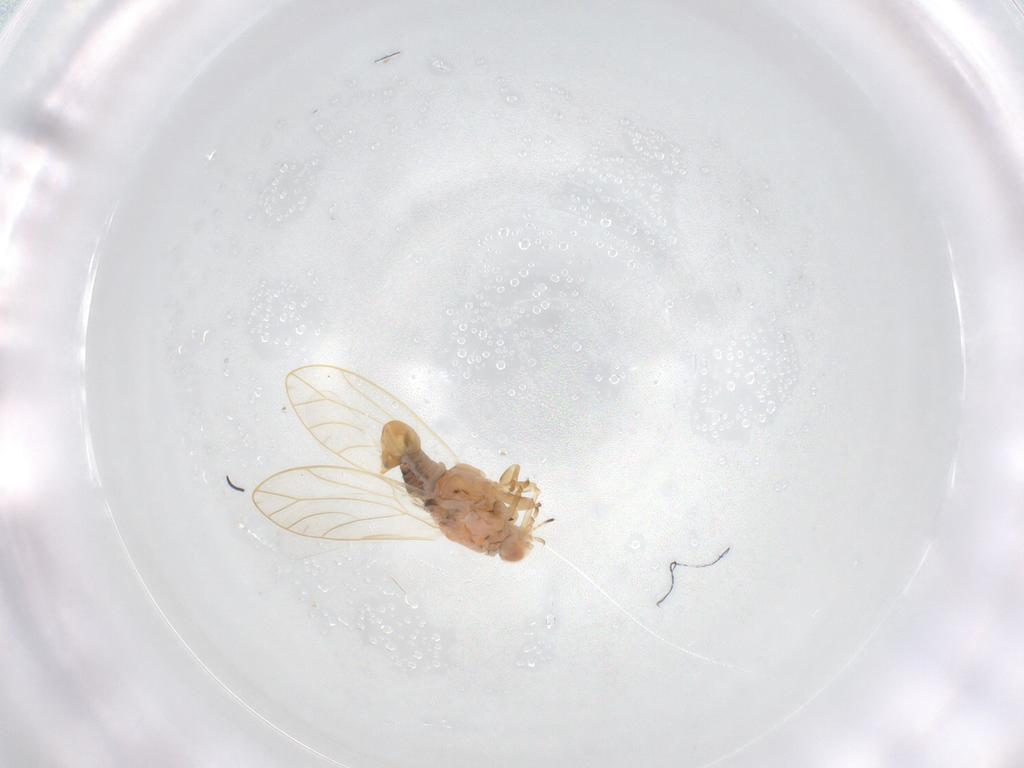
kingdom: Animalia
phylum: Arthropoda
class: Insecta
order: Hemiptera
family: Triozidae
